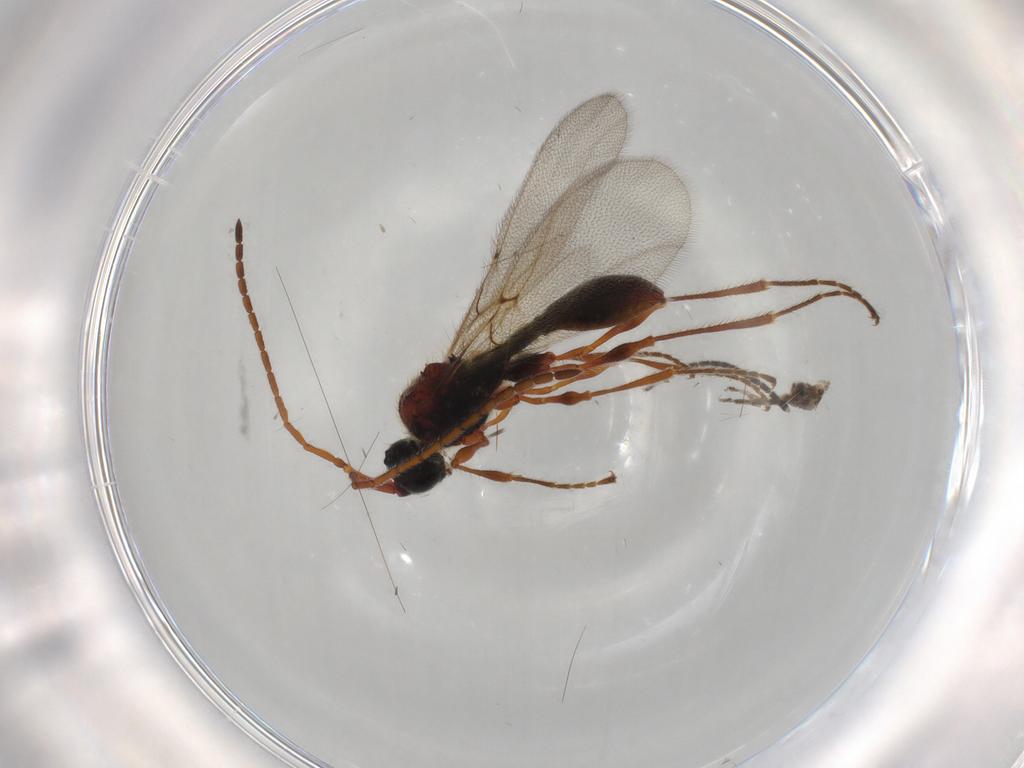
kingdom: Animalia
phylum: Arthropoda
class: Insecta
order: Hymenoptera
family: Diapriidae
